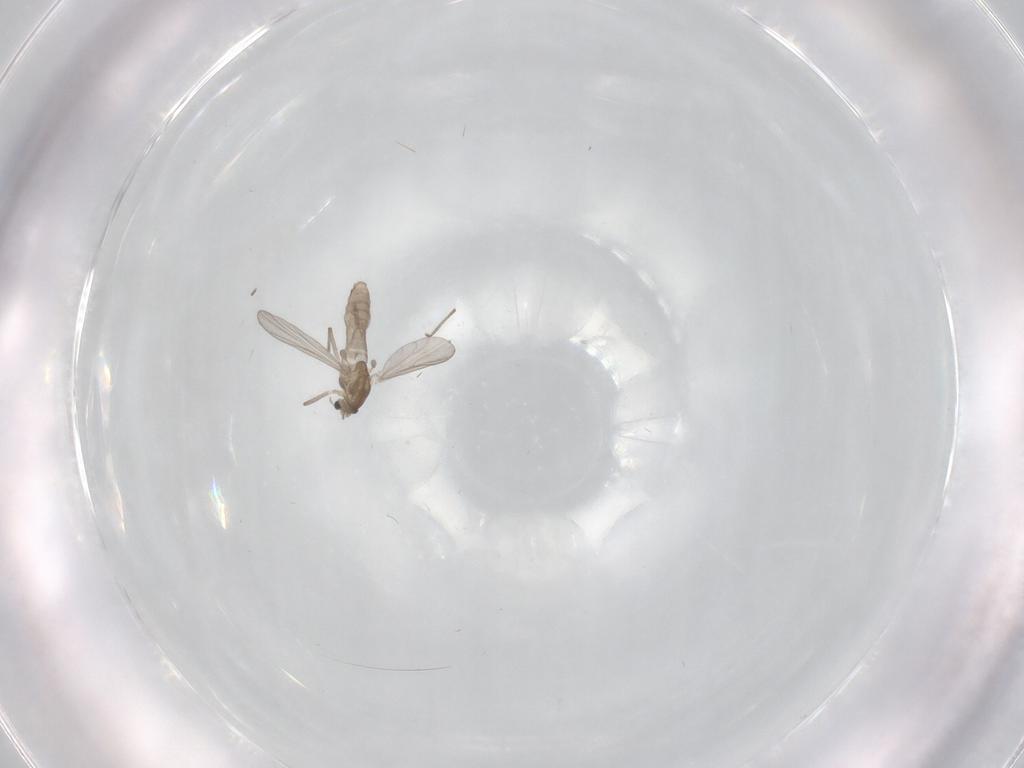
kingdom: Animalia
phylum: Arthropoda
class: Insecta
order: Diptera
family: Chironomidae
